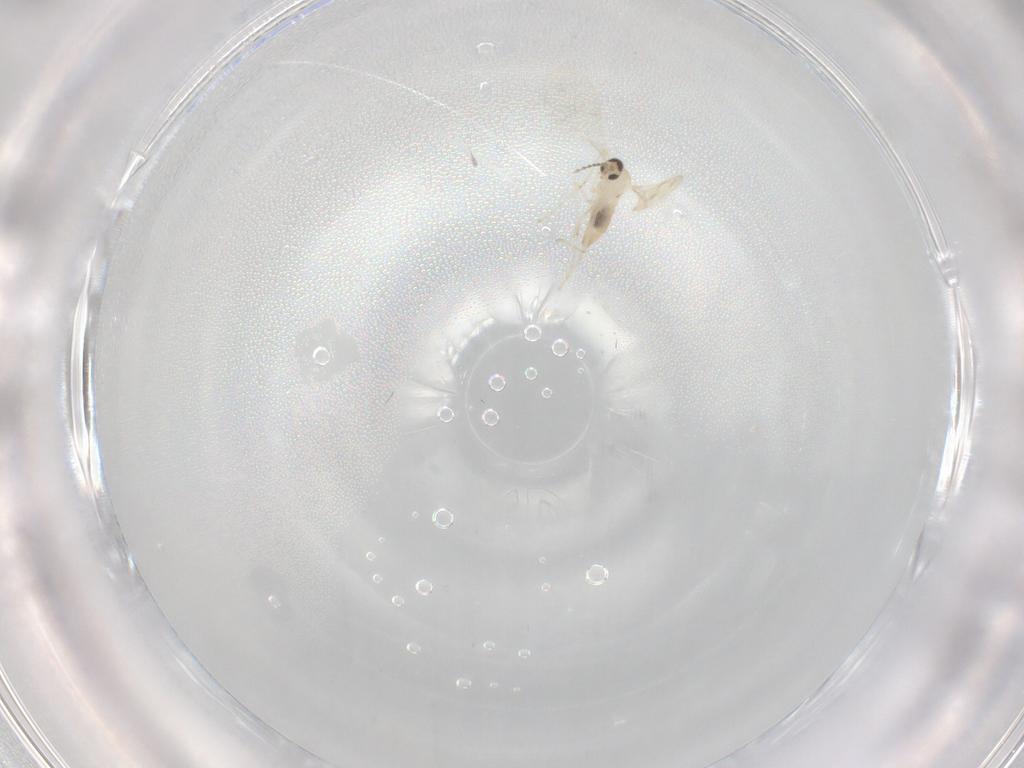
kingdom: Animalia
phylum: Arthropoda
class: Insecta
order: Diptera
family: Ceratopogonidae
